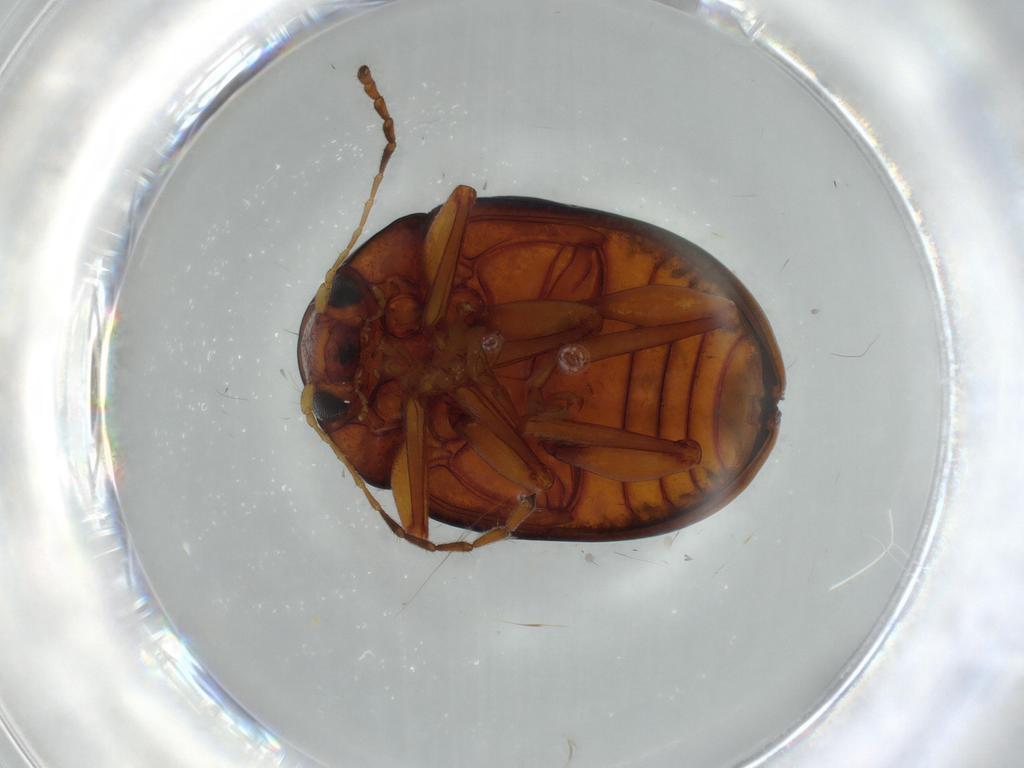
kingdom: Animalia
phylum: Arthropoda
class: Insecta
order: Coleoptera
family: Chrysomelidae
